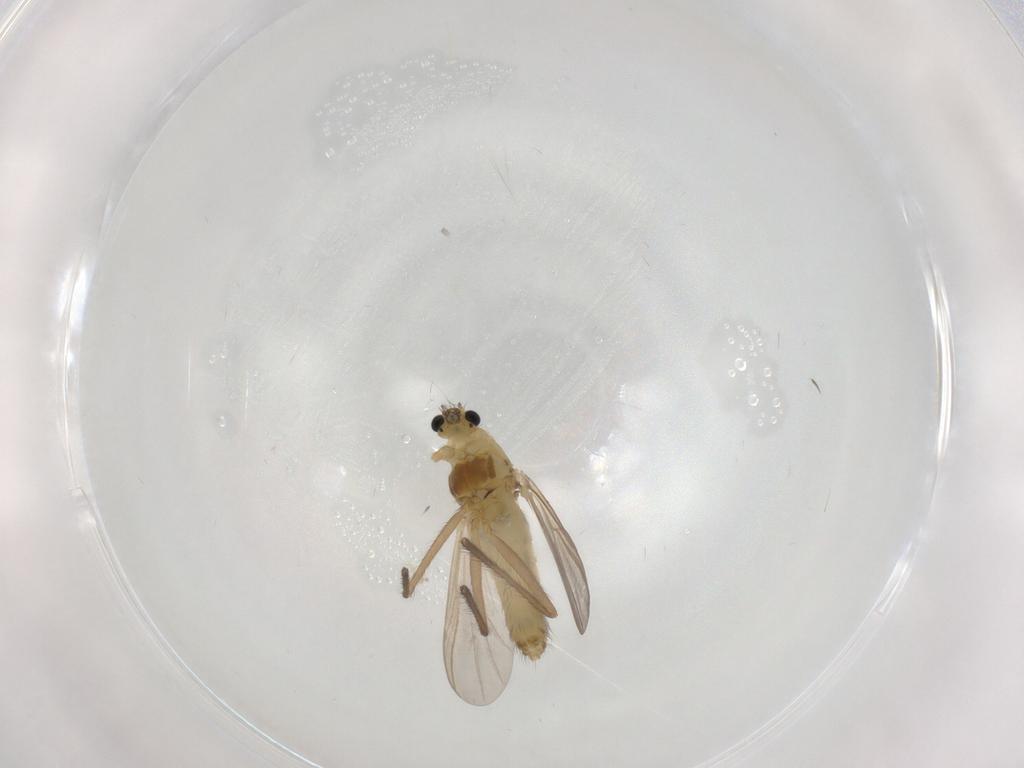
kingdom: Animalia
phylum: Arthropoda
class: Insecta
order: Diptera
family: Chironomidae
